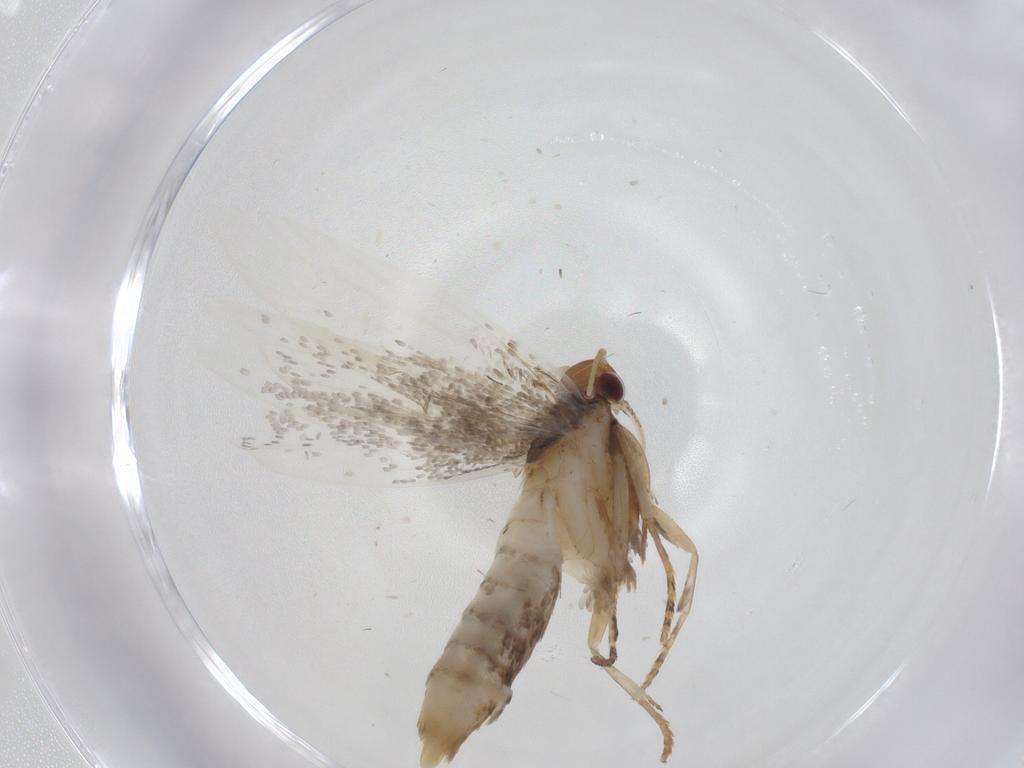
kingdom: Animalia
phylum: Arthropoda
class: Insecta
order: Lepidoptera
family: Gelechiidae
